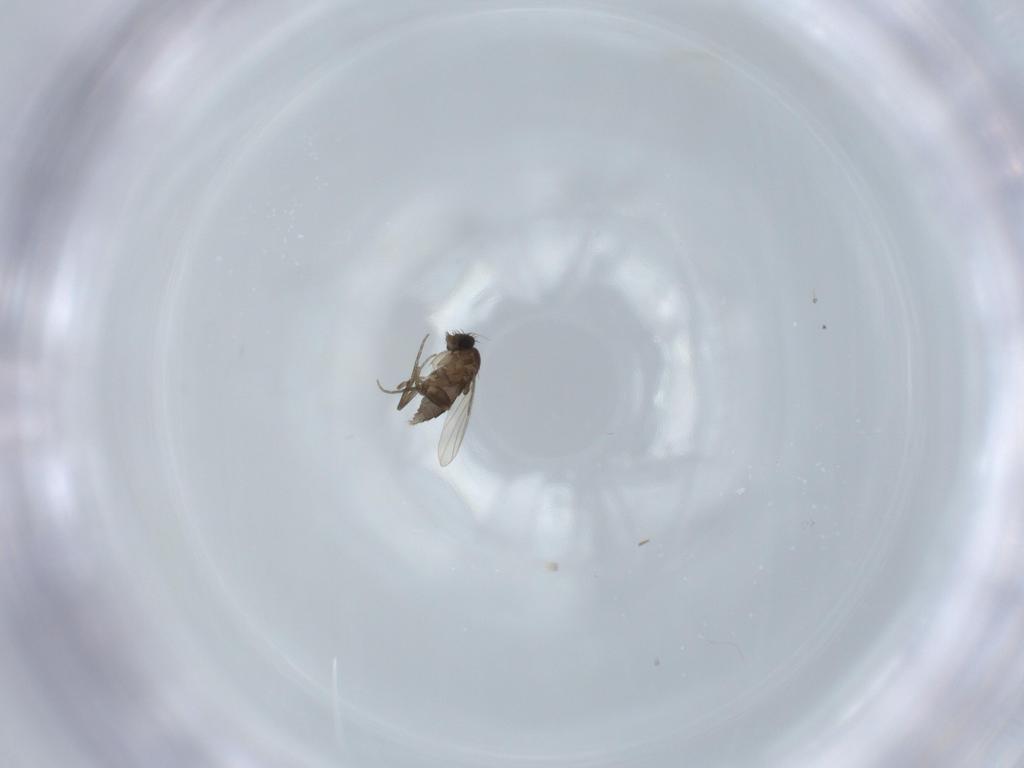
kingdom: Animalia
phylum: Arthropoda
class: Insecta
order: Diptera
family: Phoridae
